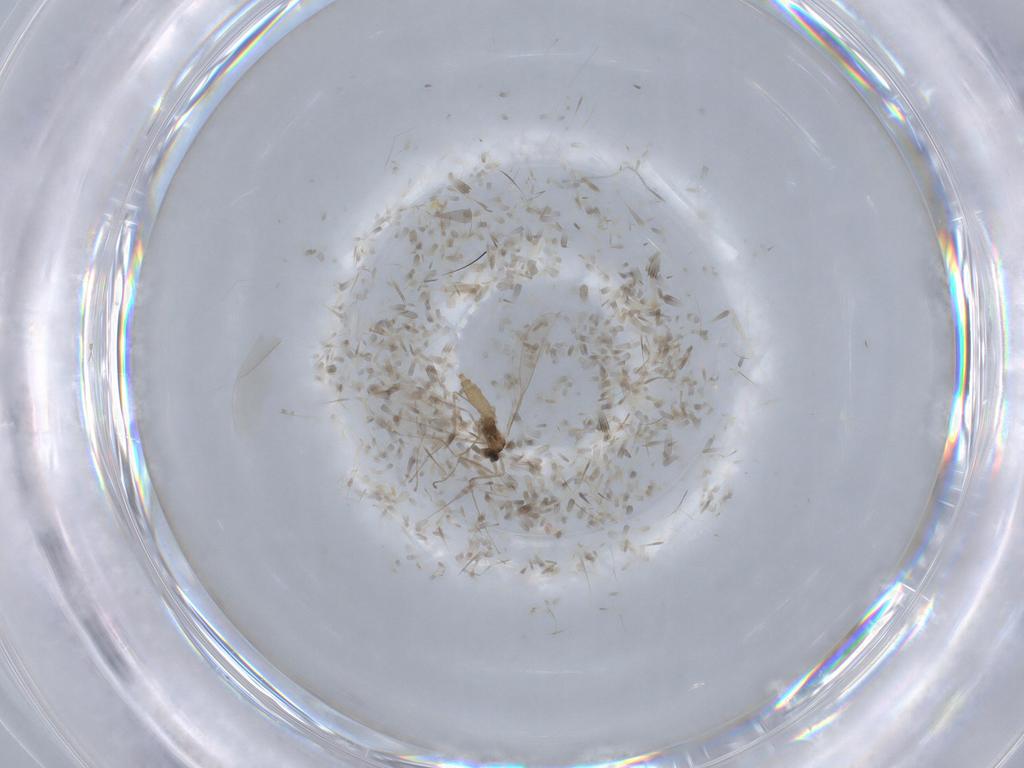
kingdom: Animalia
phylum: Arthropoda
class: Insecta
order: Diptera
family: Cecidomyiidae
